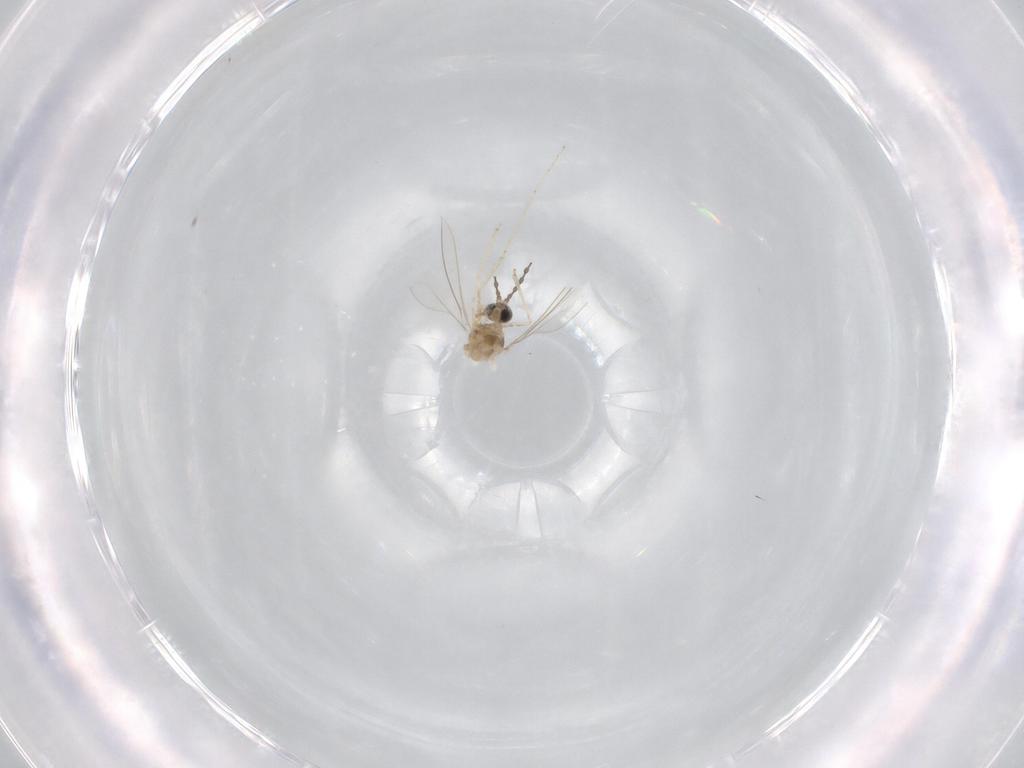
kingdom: Animalia
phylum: Arthropoda
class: Insecta
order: Diptera
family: Cecidomyiidae
